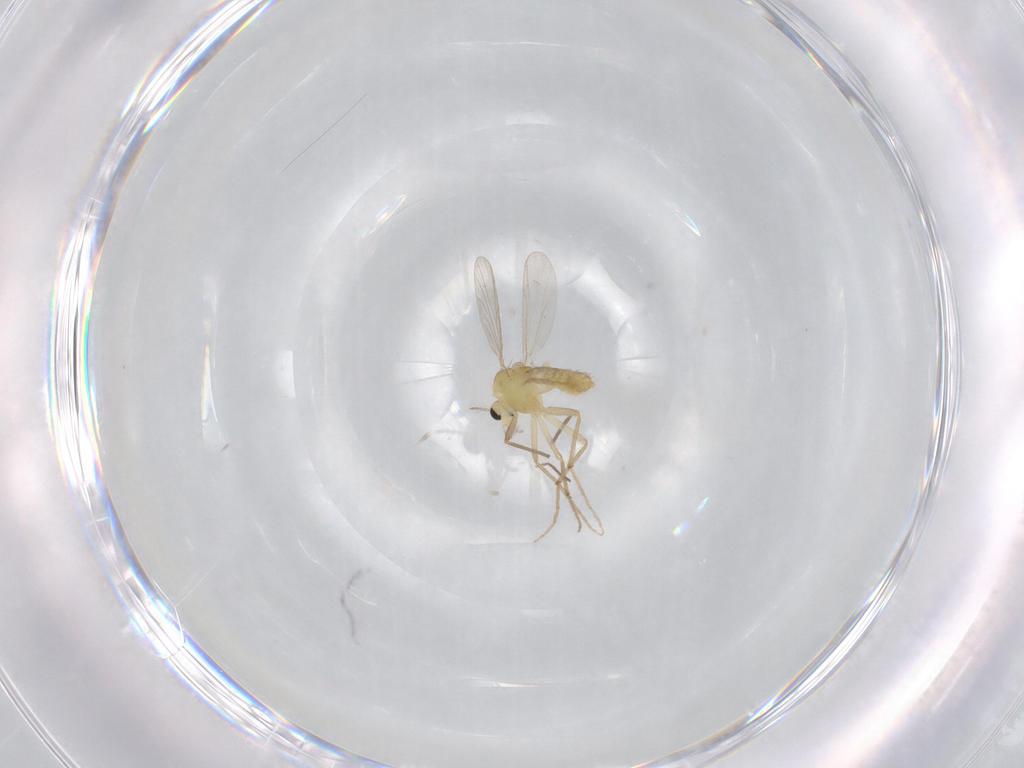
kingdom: Animalia
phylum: Arthropoda
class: Insecta
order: Diptera
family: Chironomidae
